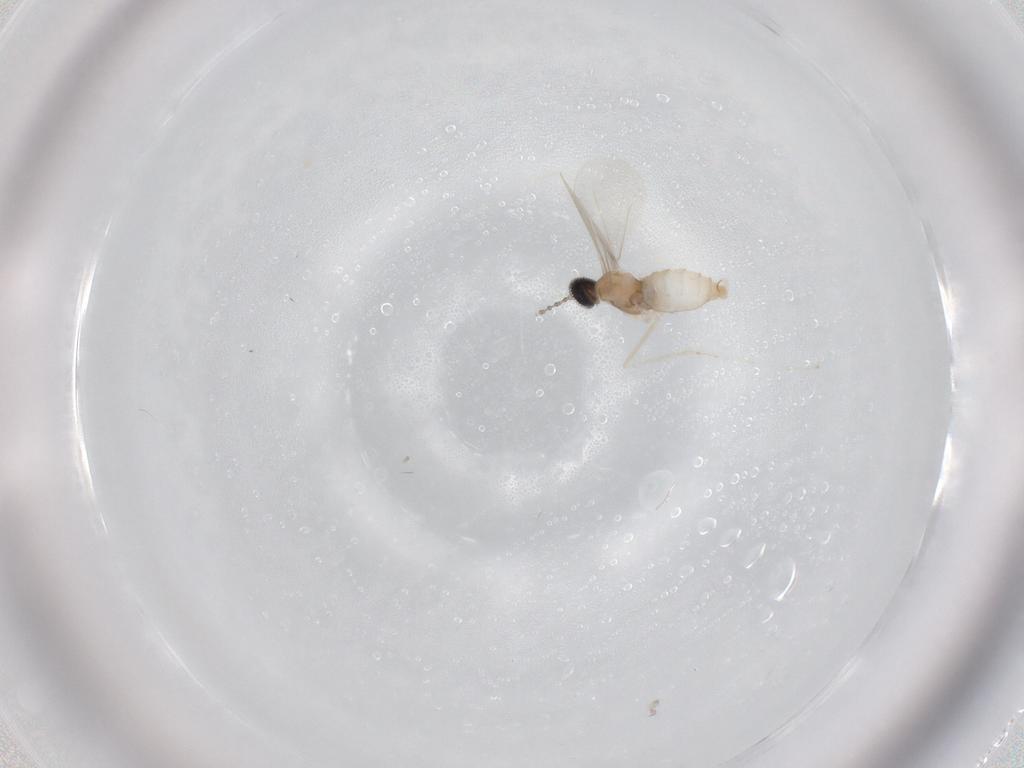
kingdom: Animalia
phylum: Arthropoda
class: Insecta
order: Diptera
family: Cecidomyiidae
